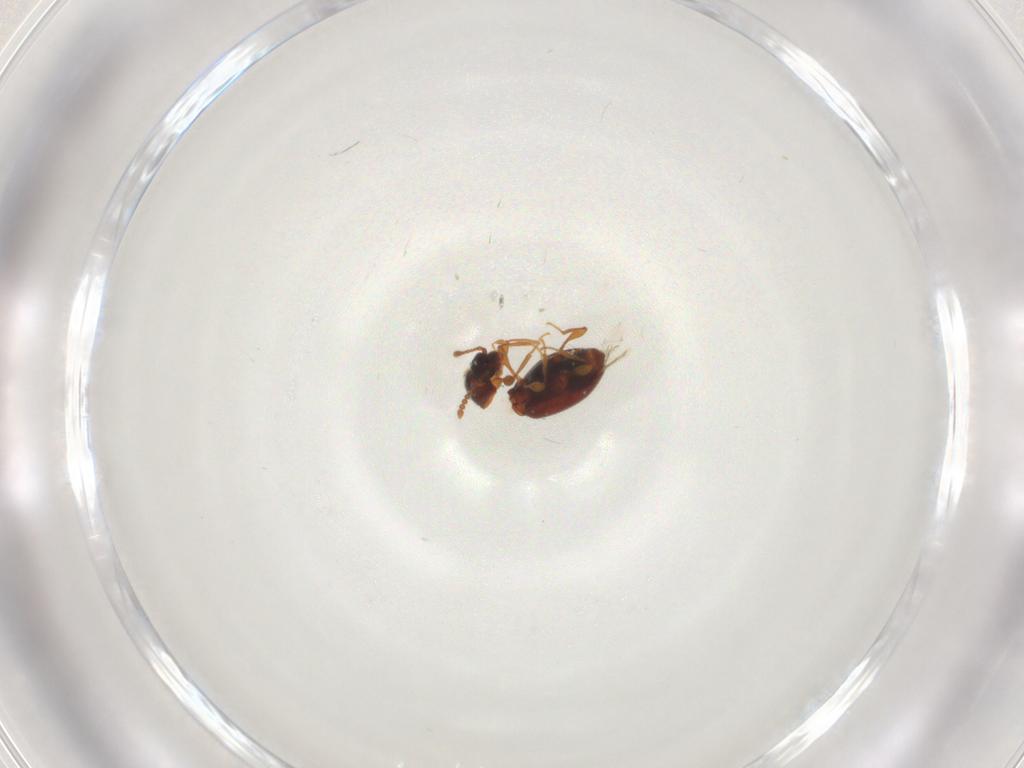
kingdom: Animalia
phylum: Arthropoda
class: Insecta
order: Coleoptera
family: Staphylinidae
